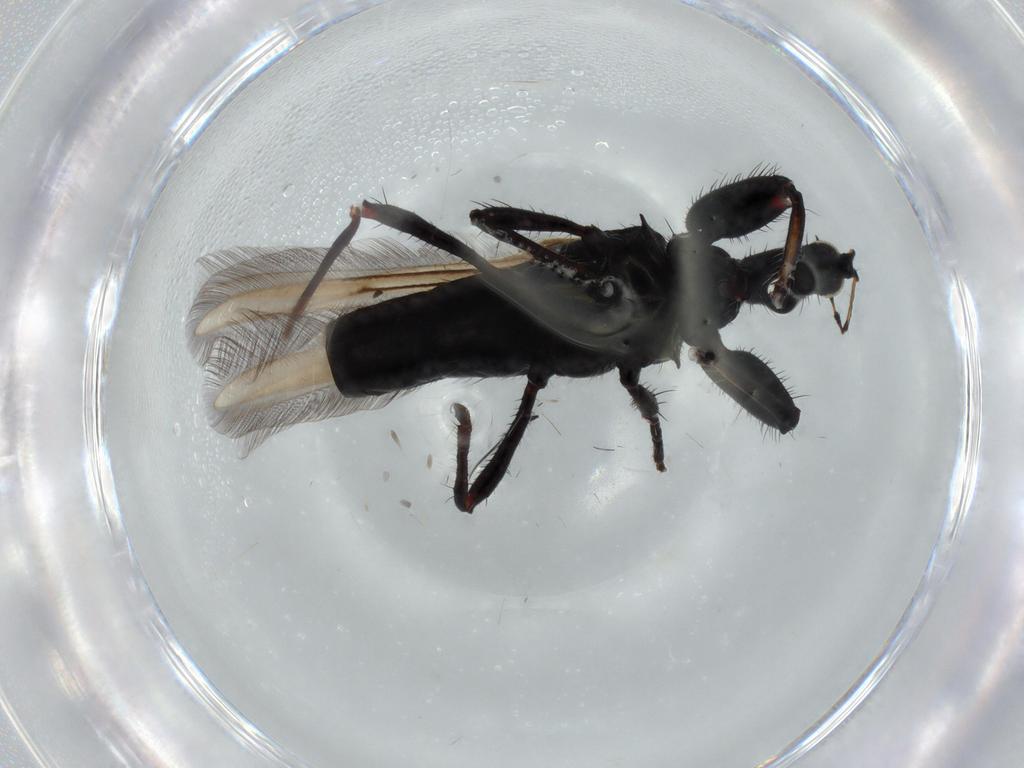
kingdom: Animalia
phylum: Arthropoda
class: Insecta
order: Thysanoptera
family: Phlaeothripidae
